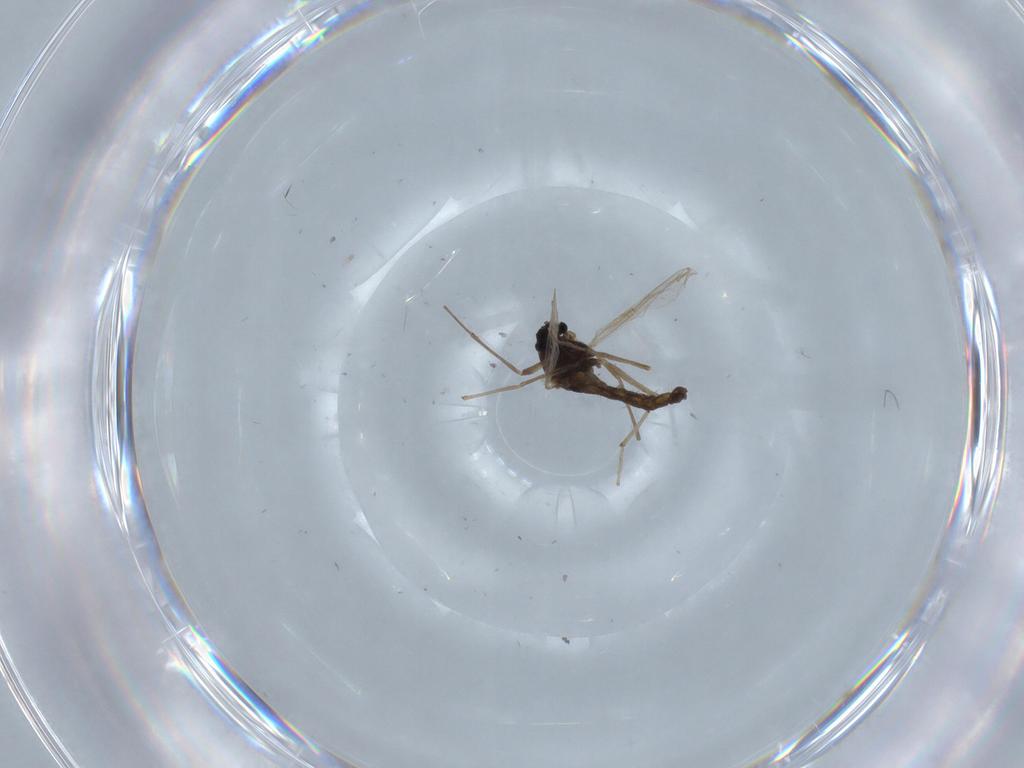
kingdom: Animalia
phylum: Arthropoda
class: Insecta
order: Diptera
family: Chironomidae
